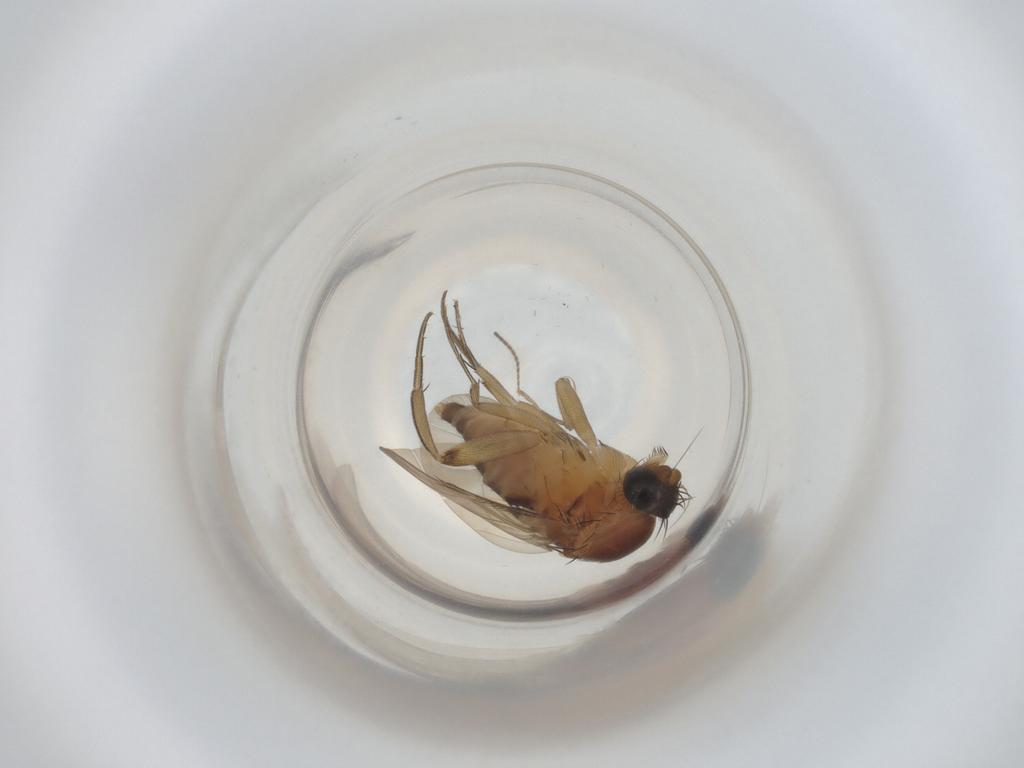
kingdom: Animalia
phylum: Arthropoda
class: Insecta
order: Diptera
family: Phoridae
